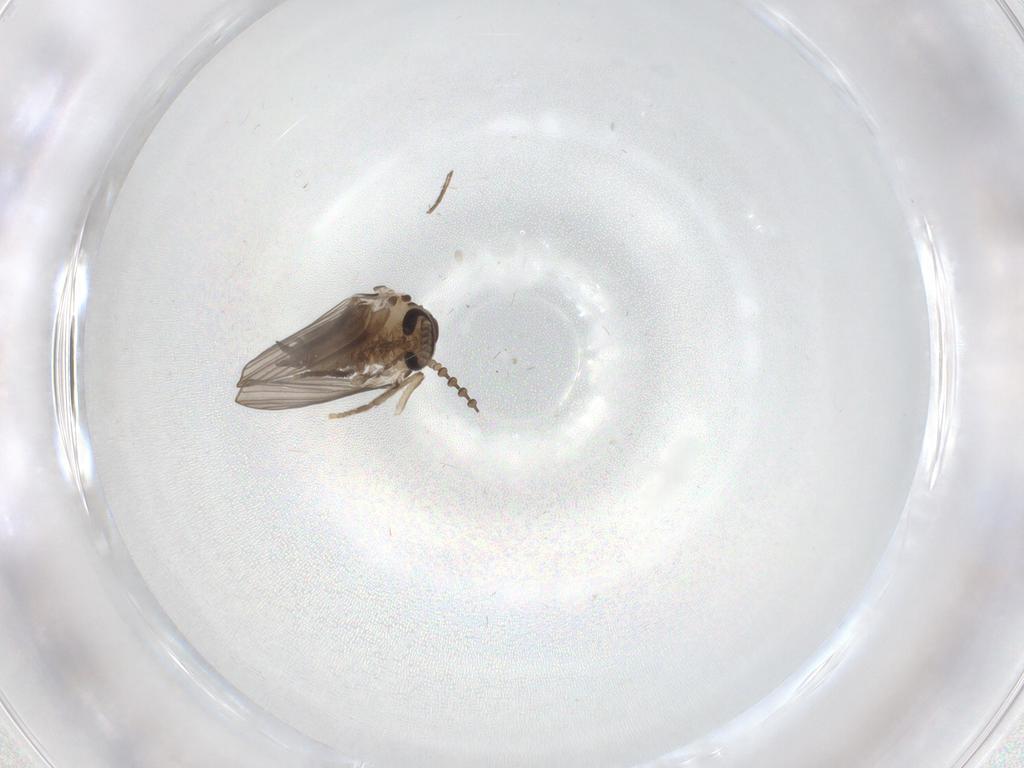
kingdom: Animalia
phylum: Arthropoda
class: Insecta
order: Diptera
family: Psychodidae
